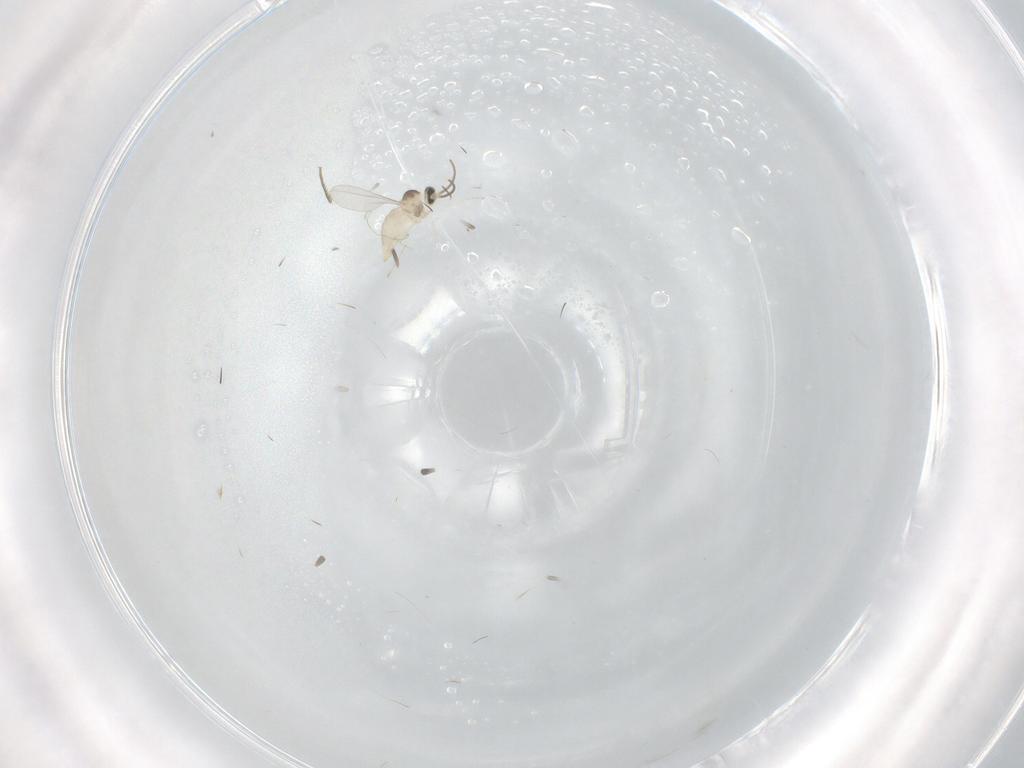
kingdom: Animalia
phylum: Arthropoda
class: Insecta
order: Diptera
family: Phoridae
